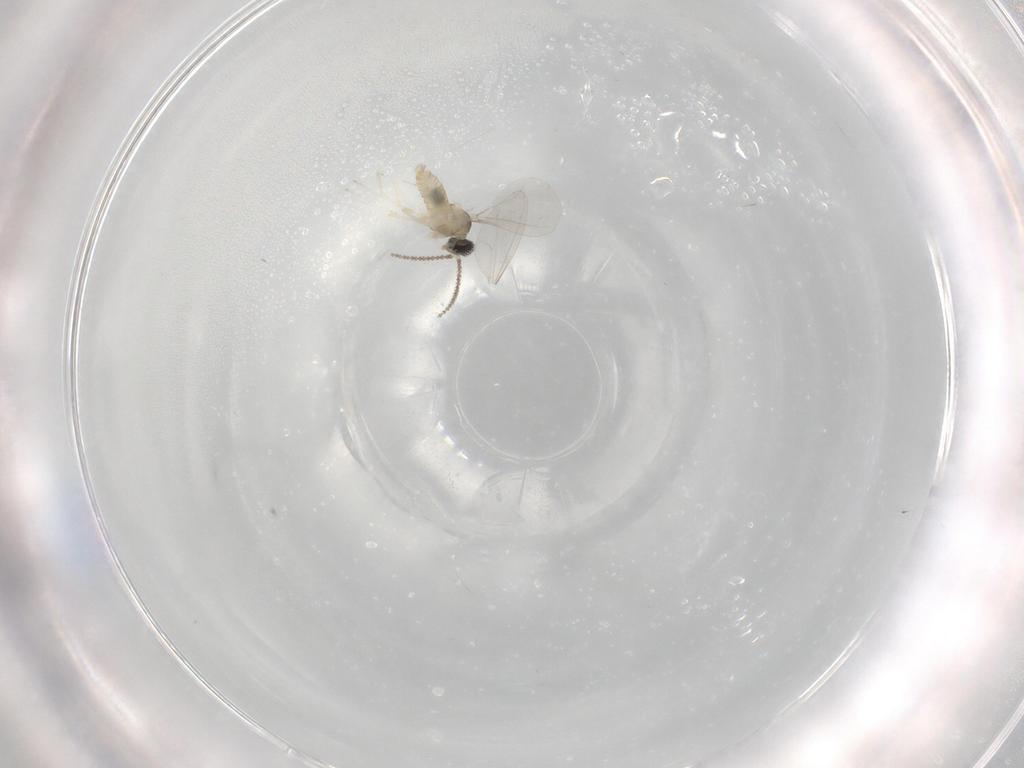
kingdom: Animalia
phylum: Arthropoda
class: Insecta
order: Diptera
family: Cecidomyiidae
